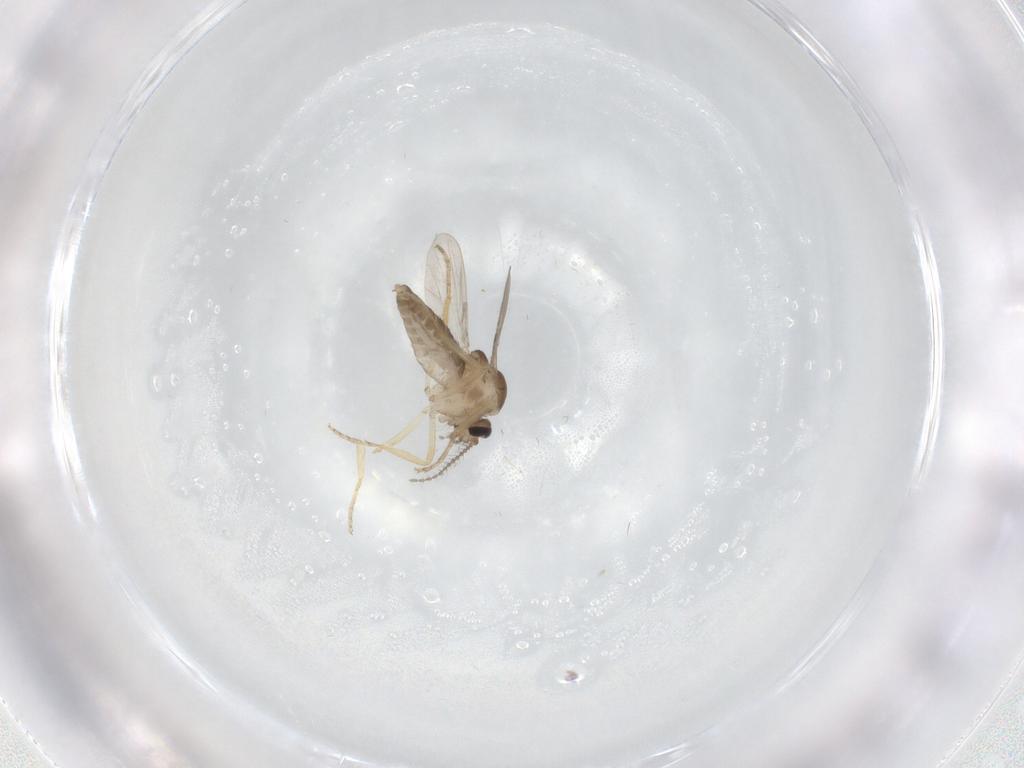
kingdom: Animalia
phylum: Arthropoda
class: Insecta
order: Diptera
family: Ceratopogonidae
